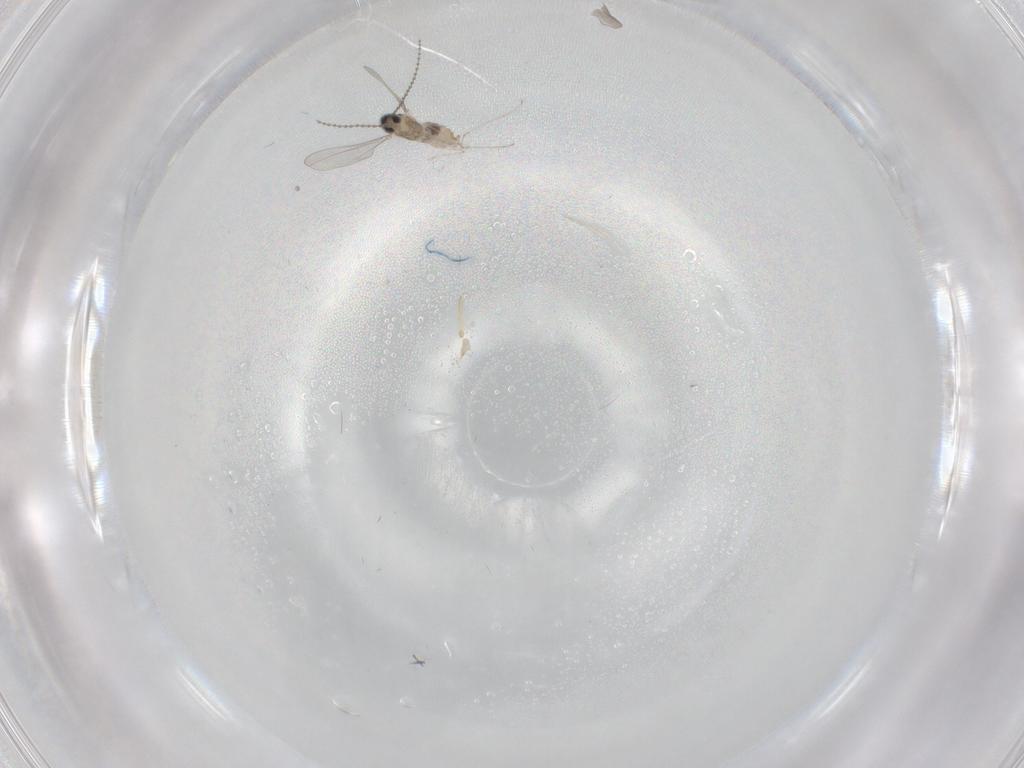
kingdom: Animalia
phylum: Arthropoda
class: Insecta
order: Diptera
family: Cecidomyiidae
